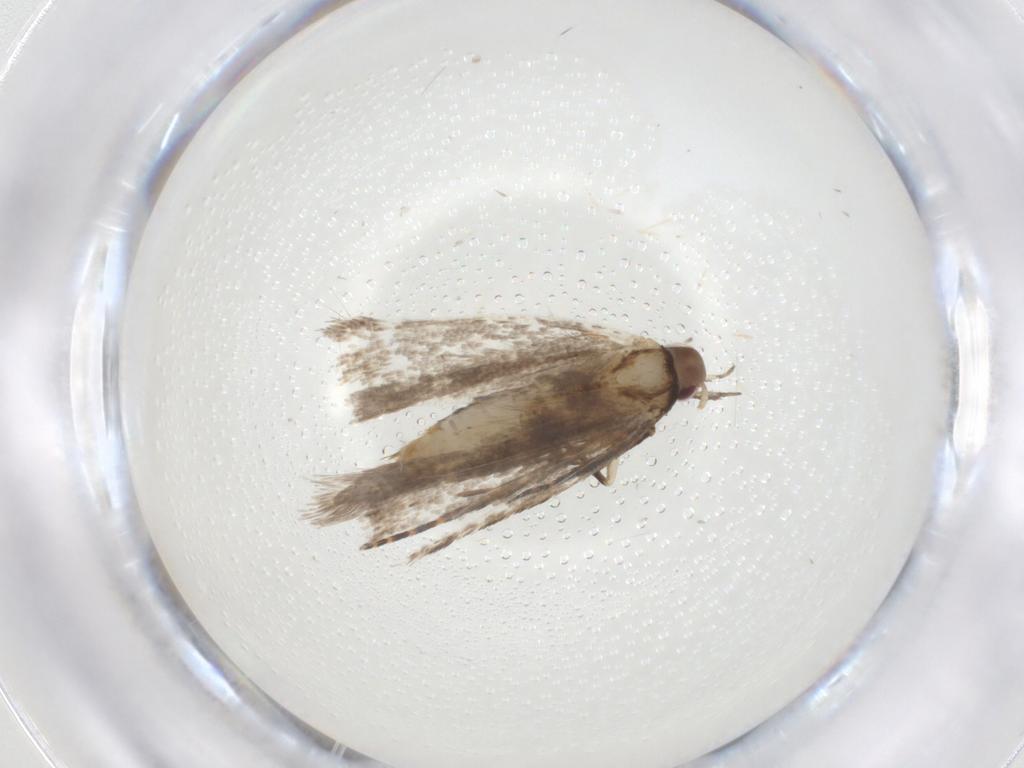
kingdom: Animalia
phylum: Arthropoda
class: Insecta
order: Lepidoptera
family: Gelechiidae
